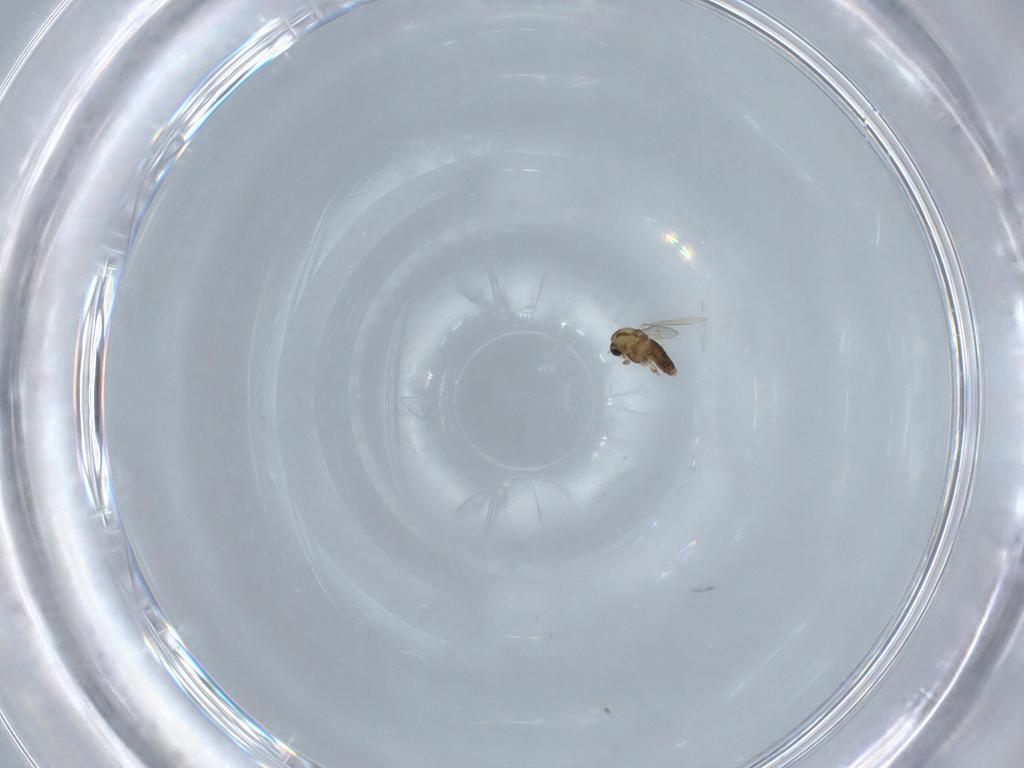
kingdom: Animalia
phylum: Arthropoda
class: Insecta
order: Diptera
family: Chironomidae
